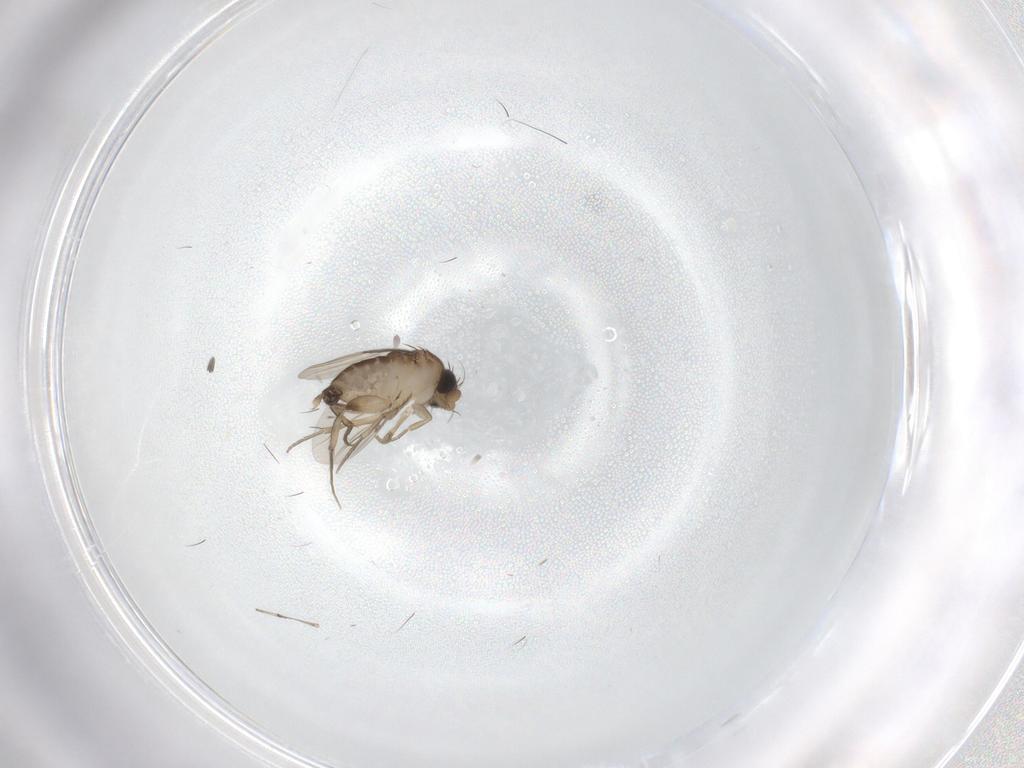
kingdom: Animalia
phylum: Arthropoda
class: Insecta
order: Diptera
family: Phoridae
